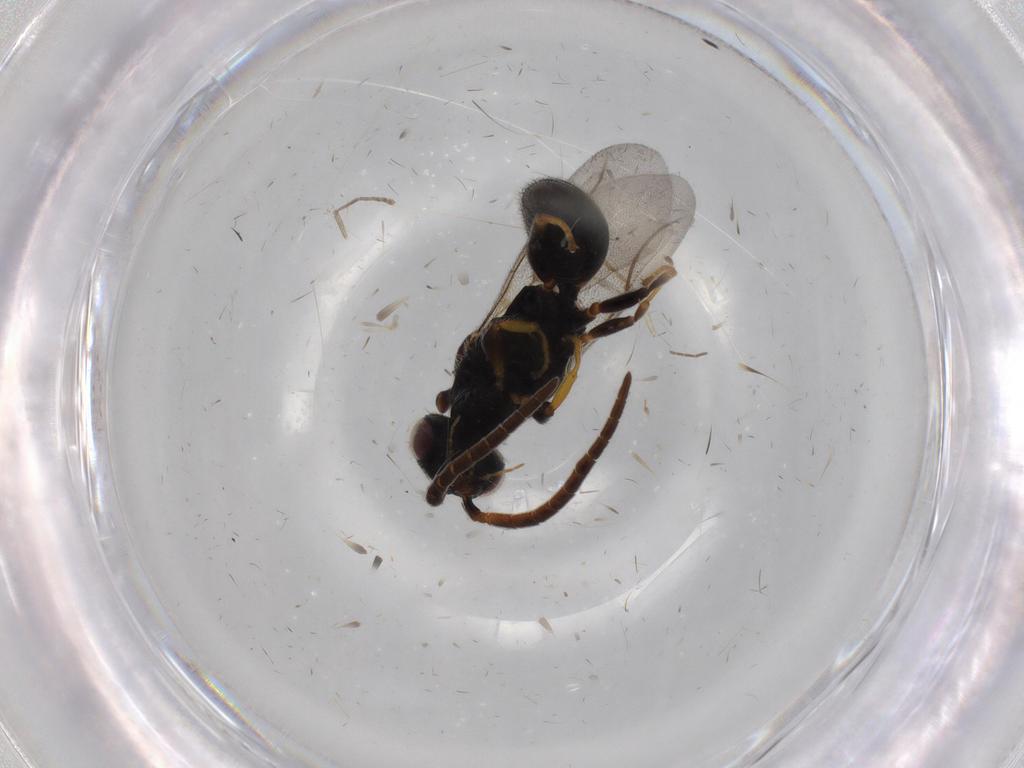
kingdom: Animalia
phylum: Arthropoda
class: Insecta
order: Hymenoptera
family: Bethylidae
